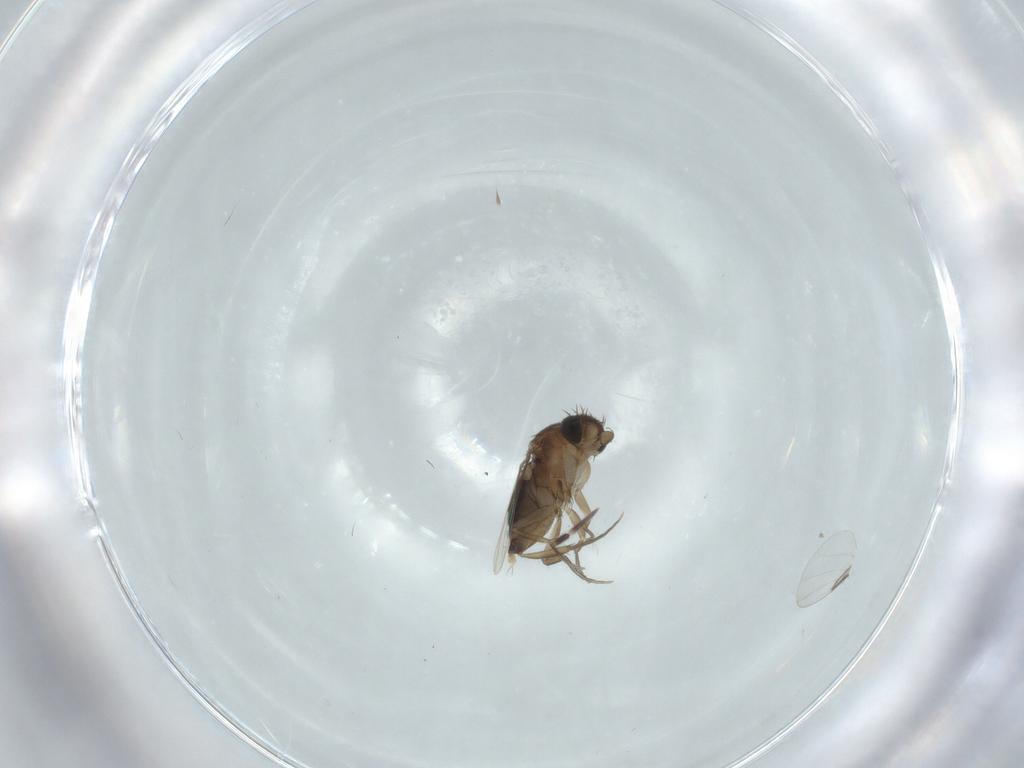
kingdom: Animalia
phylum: Arthropoda
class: Insecta
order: Diptera
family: Phoridae
